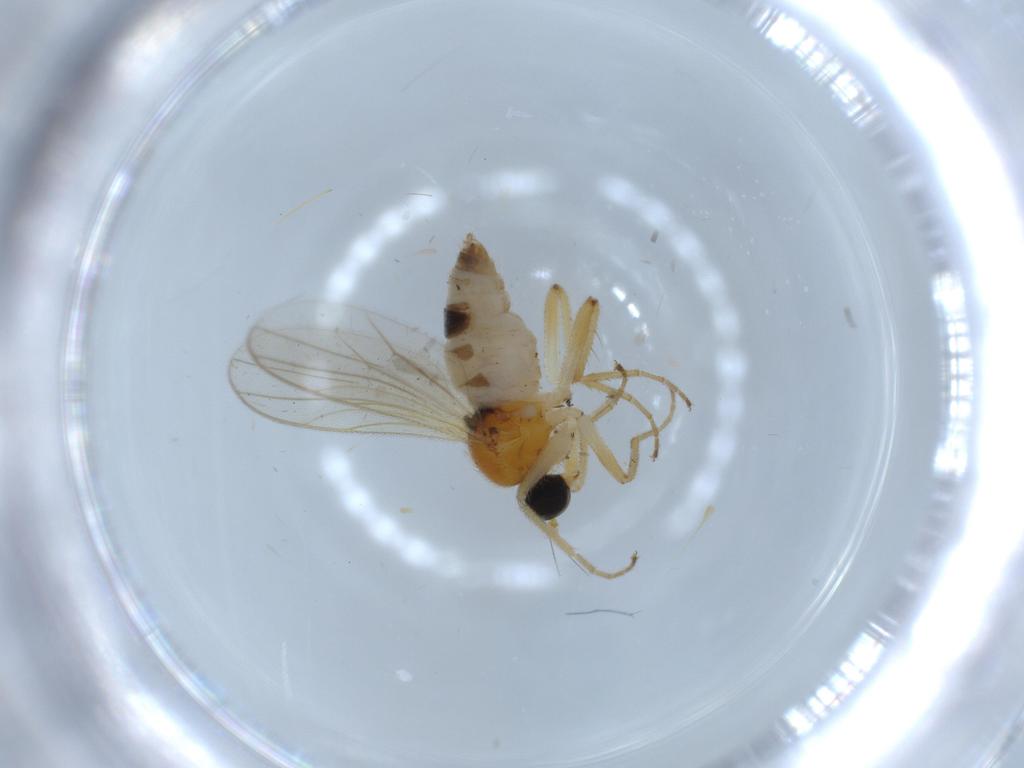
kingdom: Animalia
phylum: Arthropoda
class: Insecta
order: Diptera
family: Hybotidae
